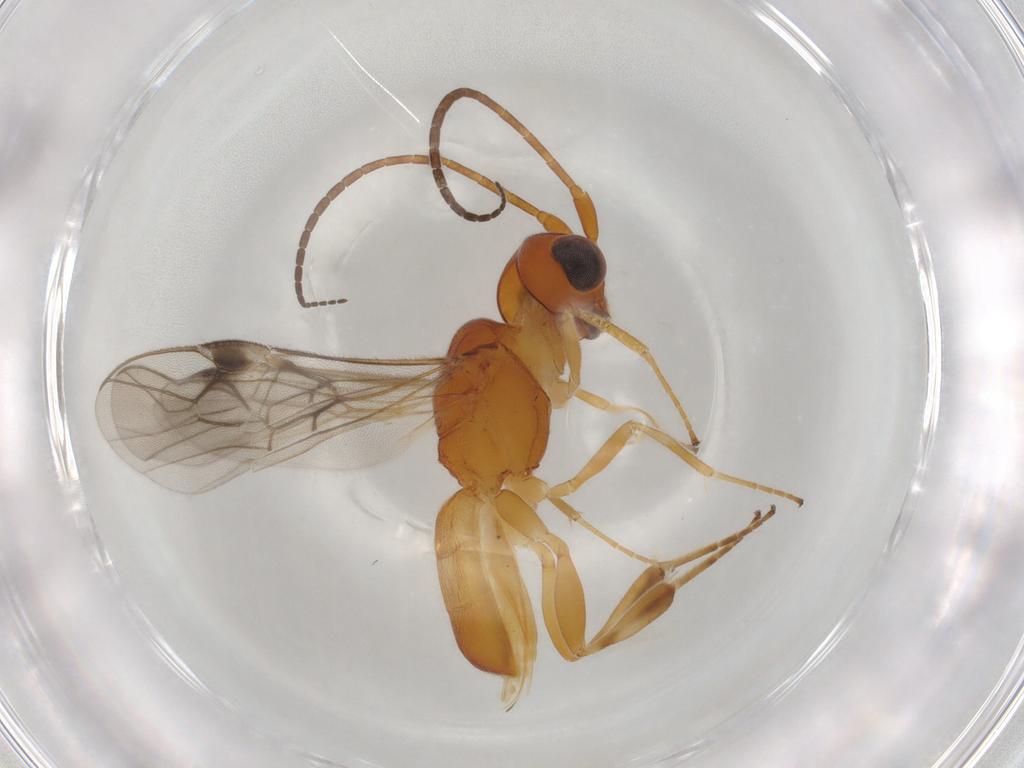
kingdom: Animalia
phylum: Arthropoda
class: Insecta
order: Hymenoptera
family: Braconidae
